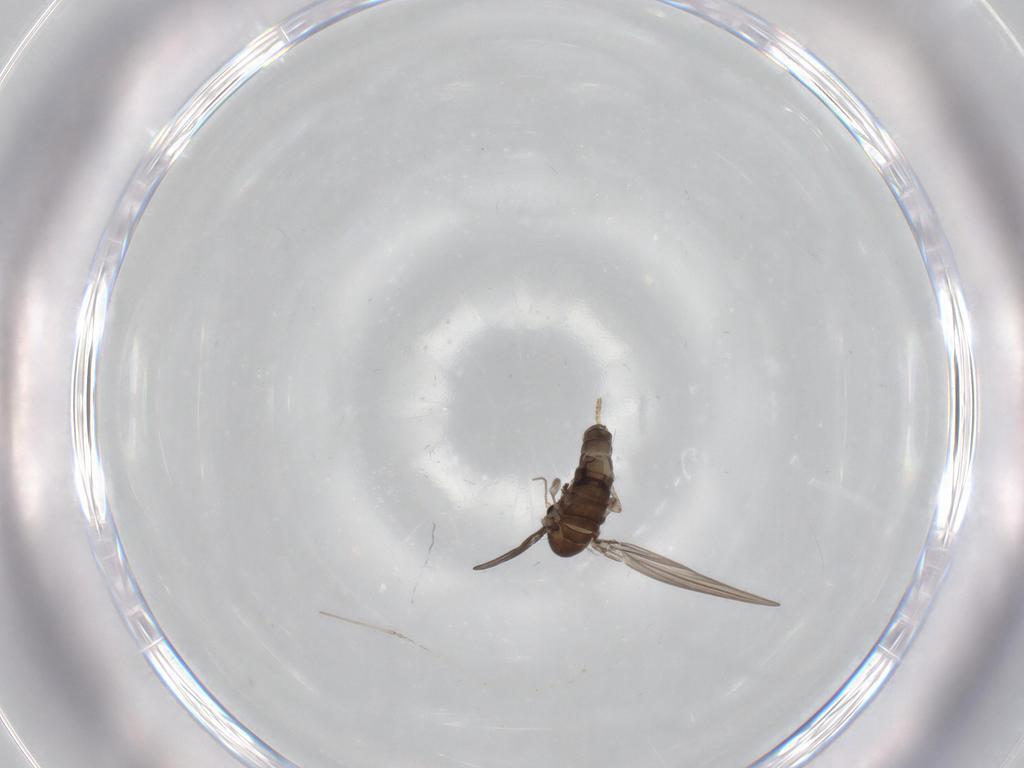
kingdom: Animalia
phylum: Arthropoda
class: Insecta
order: Diptera
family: Psychodidae
